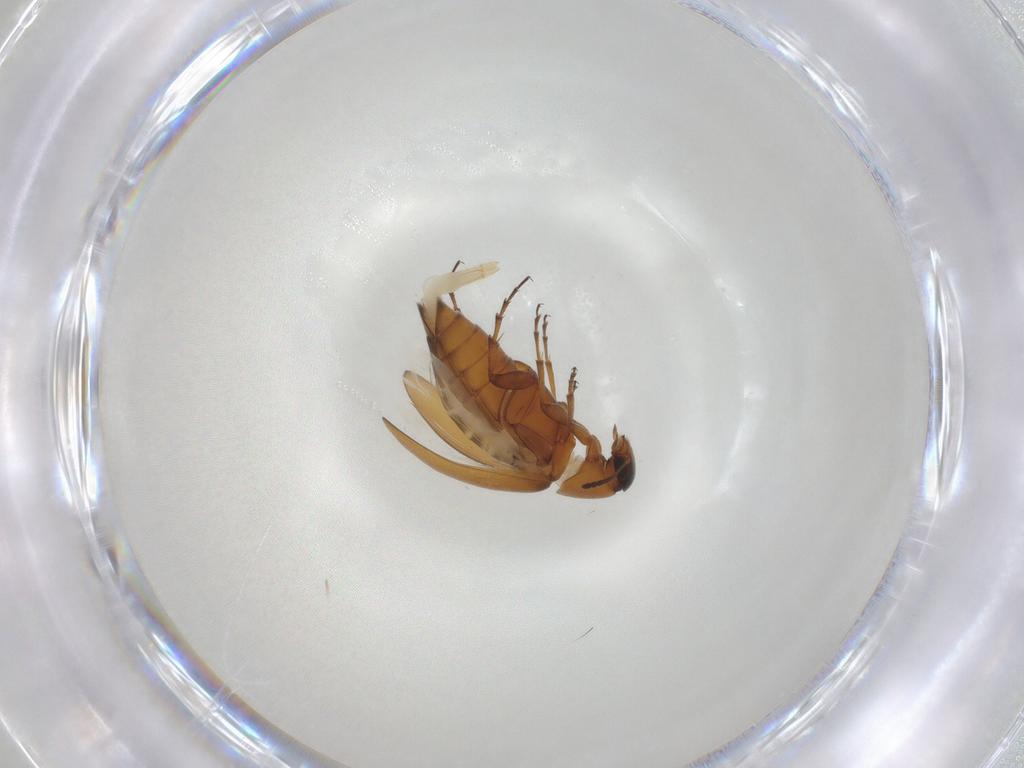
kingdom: Animalia
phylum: Arthropoda
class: Insecta
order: Coleoptera
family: Scraptiidae
